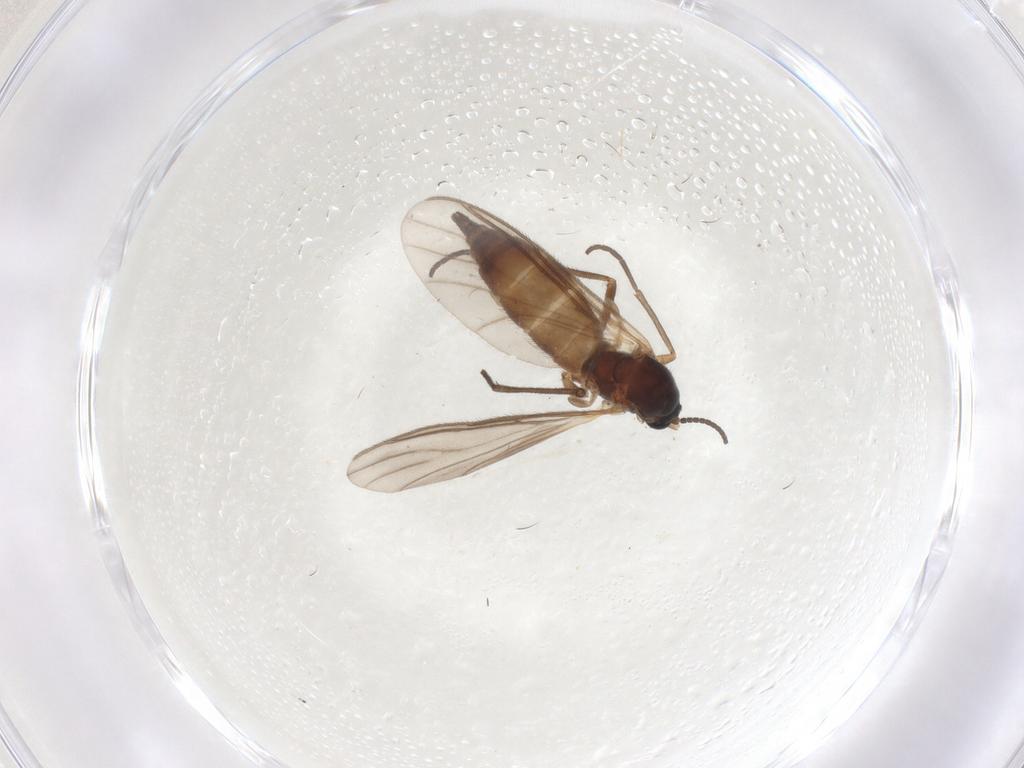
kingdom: Animalia
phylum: Arthropoda
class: Insecta
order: Diptera
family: Sciaridae
